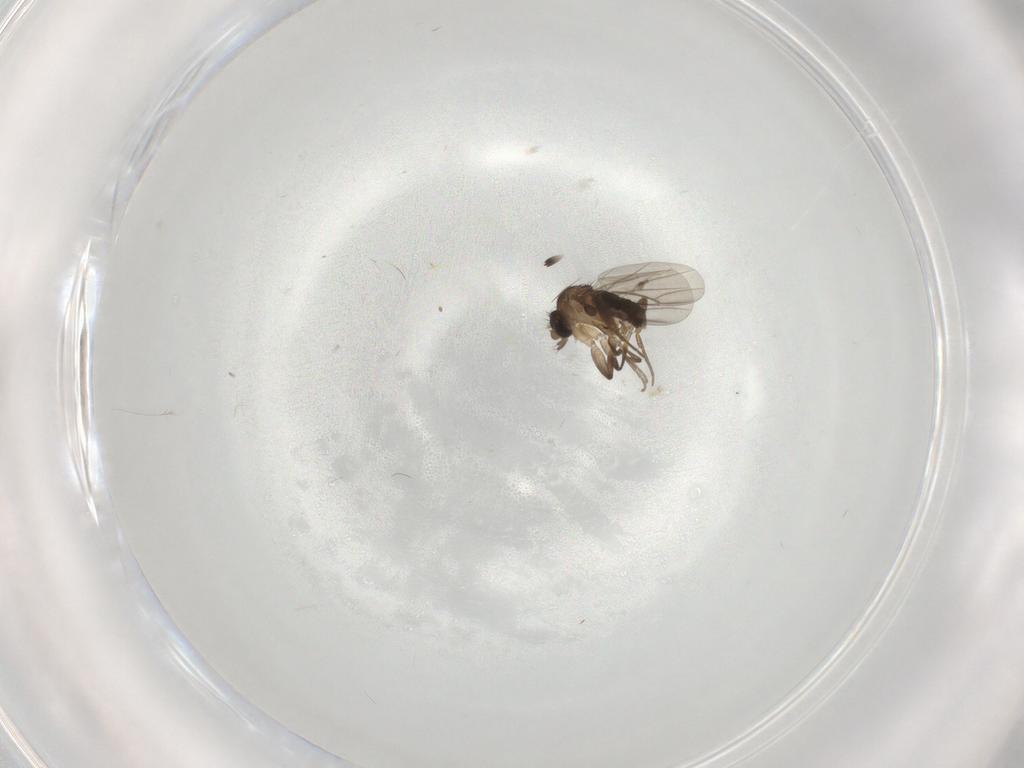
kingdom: Animalia
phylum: Arthropoda
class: Insecta
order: Diptera
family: Phoridae
